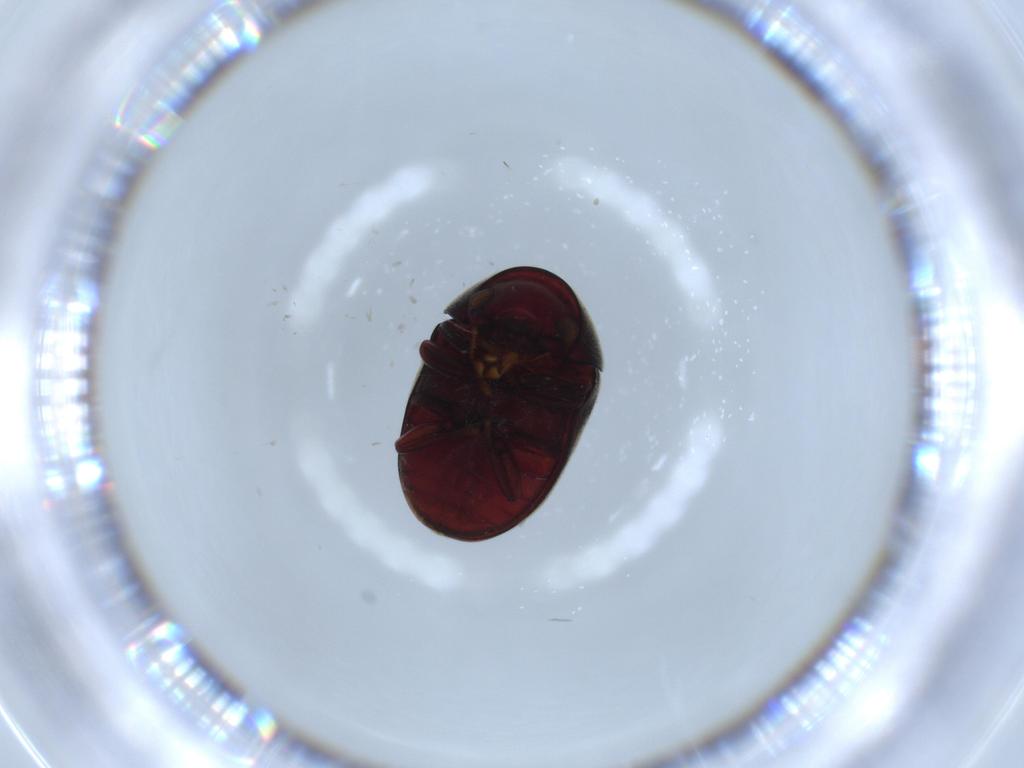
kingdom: Animalia
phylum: Arthropoda
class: Insecta
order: Coleoptera
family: Ptinidae
